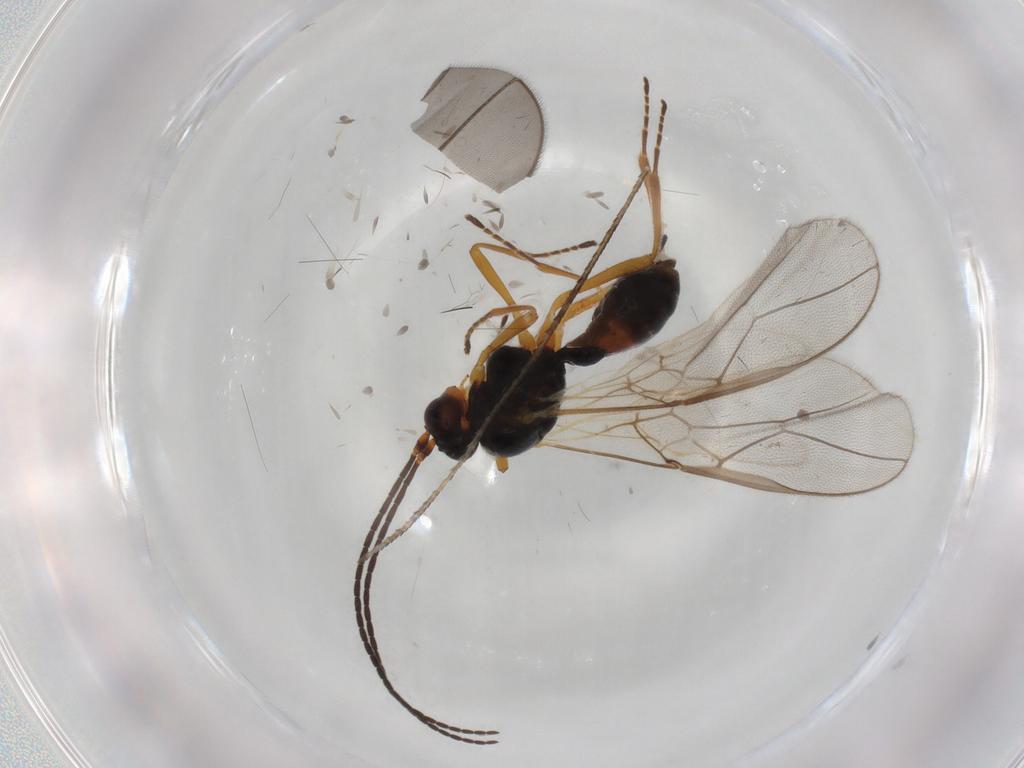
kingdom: Animalia
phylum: Arthropoda
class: Insecta
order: Hymenoptera
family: Braconidae
